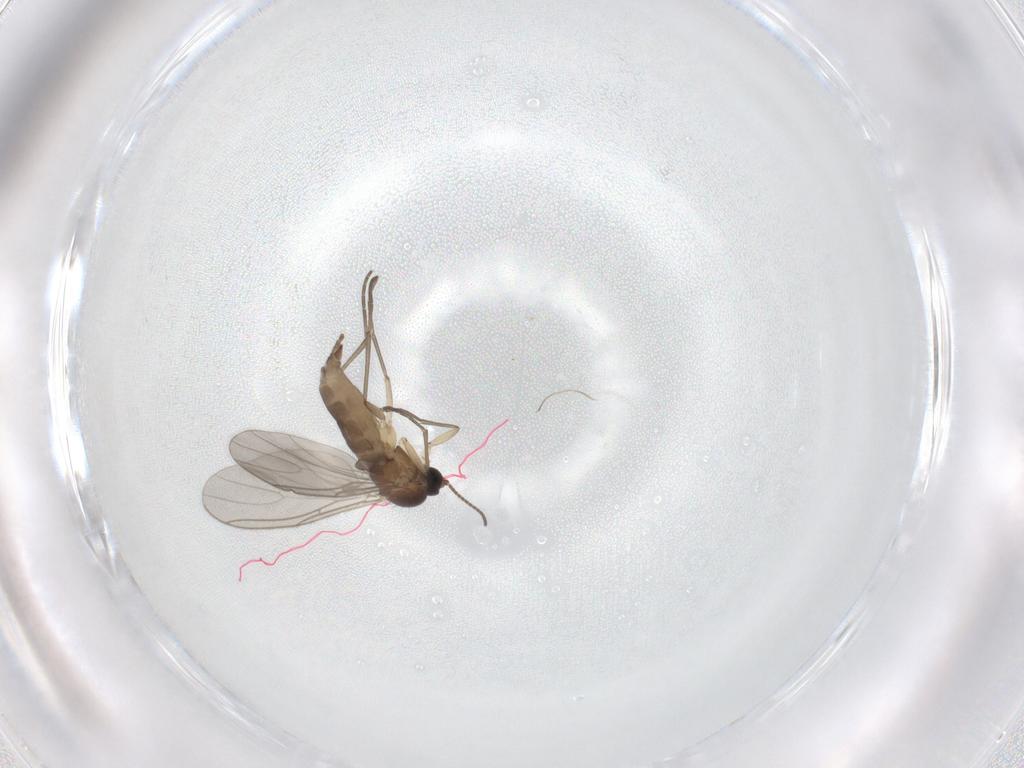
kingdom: Animalia
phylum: Arthropoda
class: Insecta
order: Diptera
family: Sciaridae
